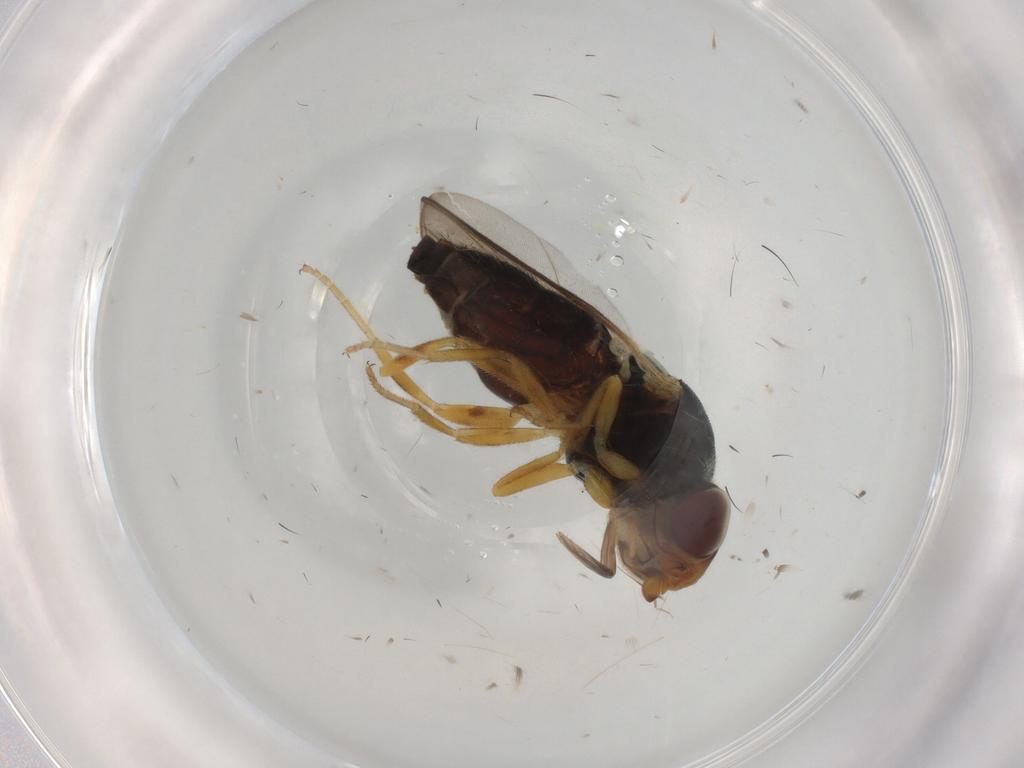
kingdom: Animalia
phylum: Arthropoda
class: Insecta
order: Diptera
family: Chloropidae
